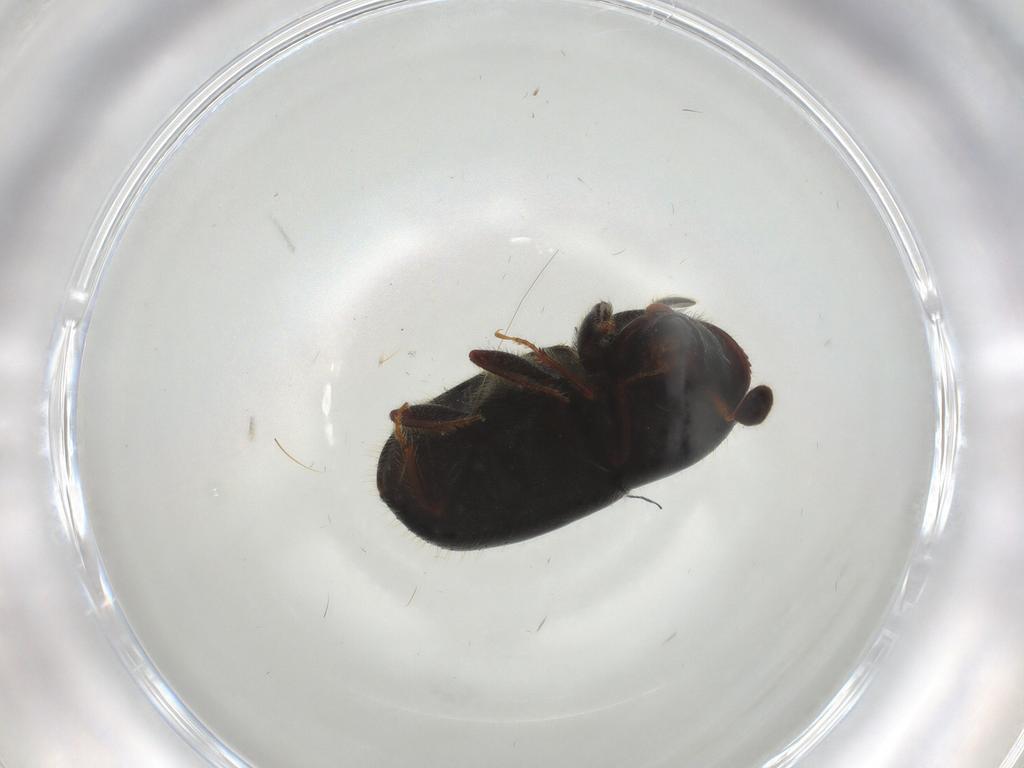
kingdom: Animalia
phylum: Arthropoda
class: Insecta
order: Coleoptera
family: Curculionidae
